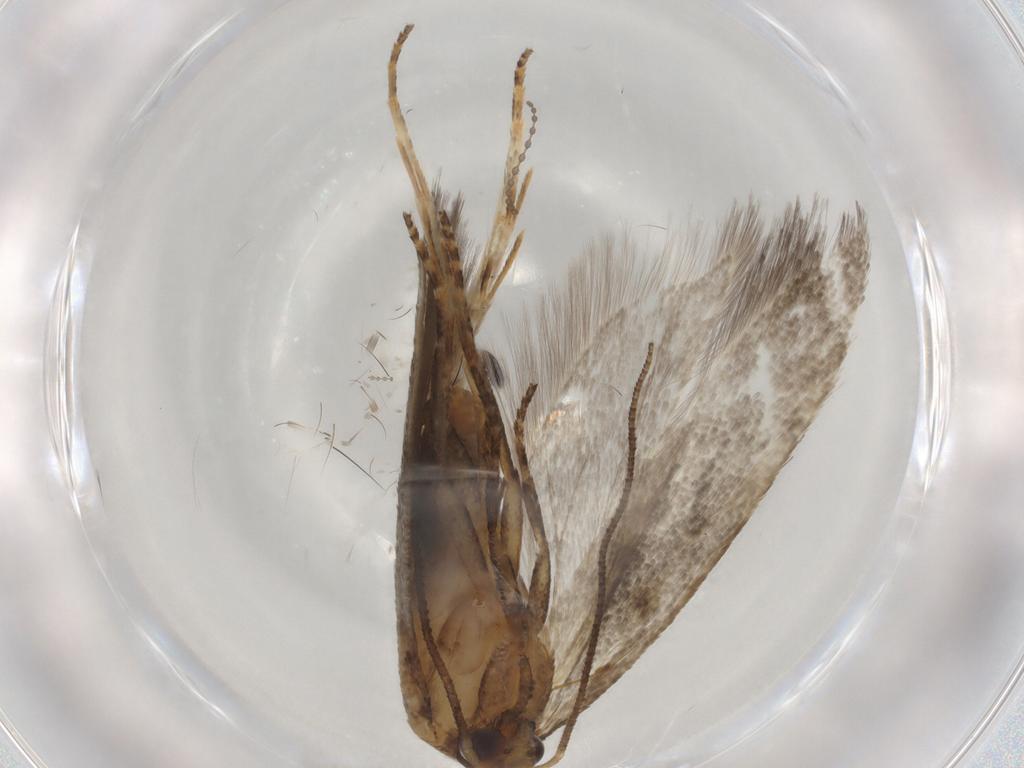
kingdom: Animalia
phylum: Arthropoda
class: Insecta
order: Lepidoptera
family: Gelechiidae
